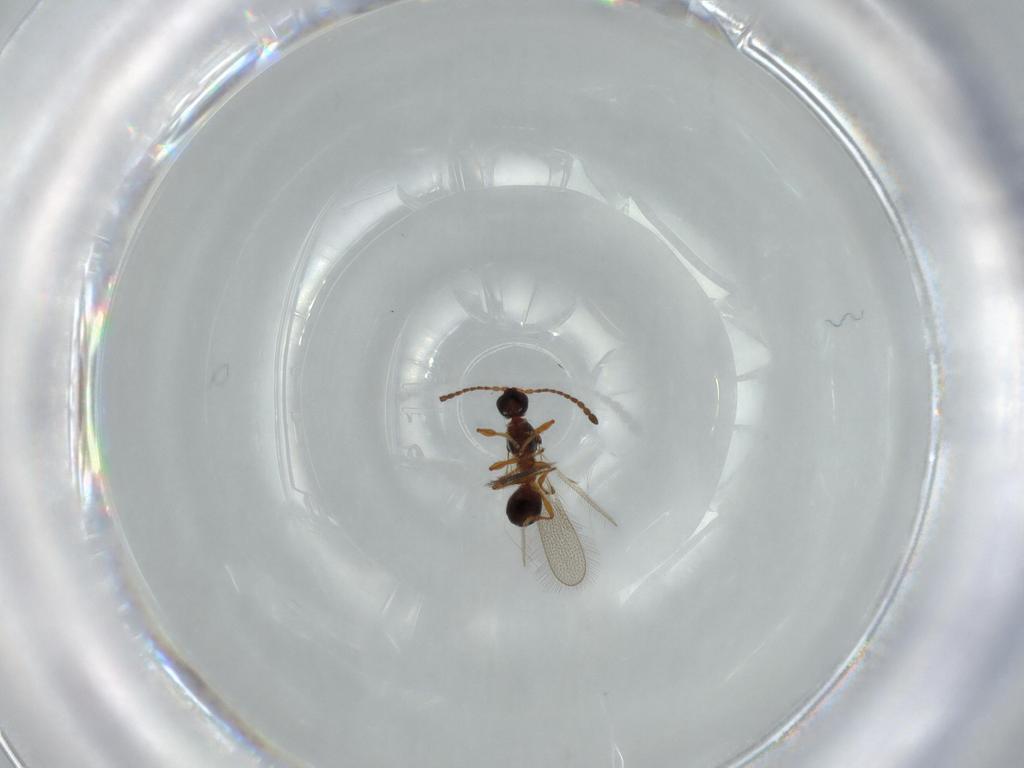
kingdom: Animalia
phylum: Arthropoda
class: Insecta
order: Hymenoptera
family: Diapriidae
